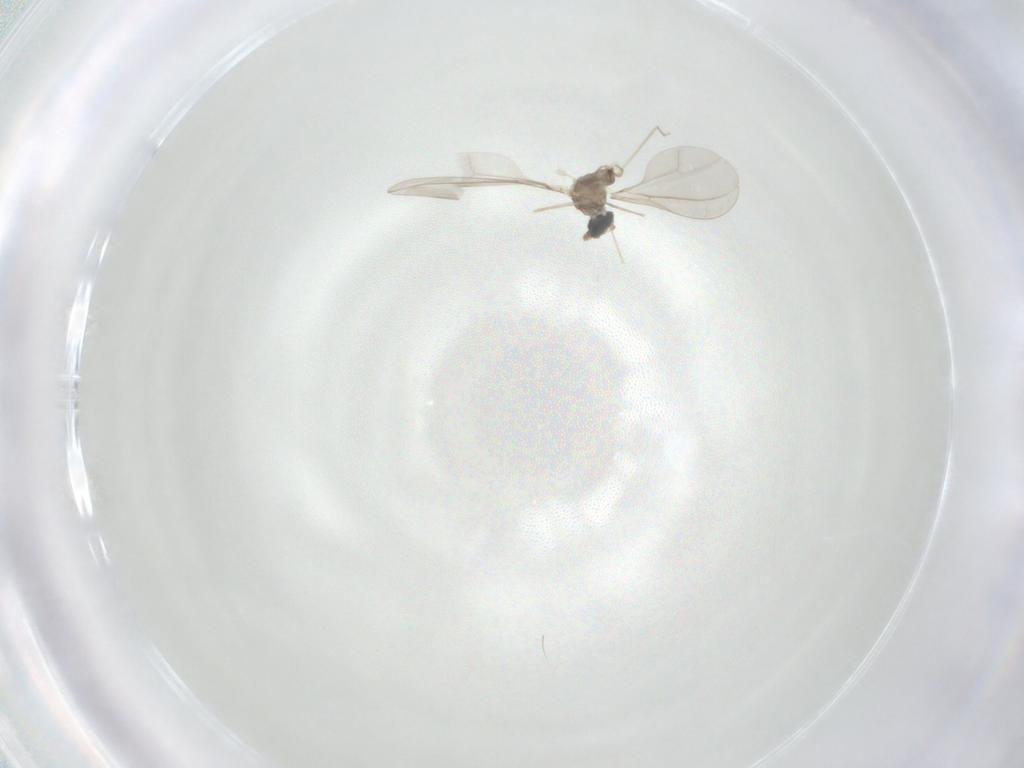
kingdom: Animalia
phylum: Arthropoda
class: Insecta
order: Diptera
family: Cecidomyiidae
